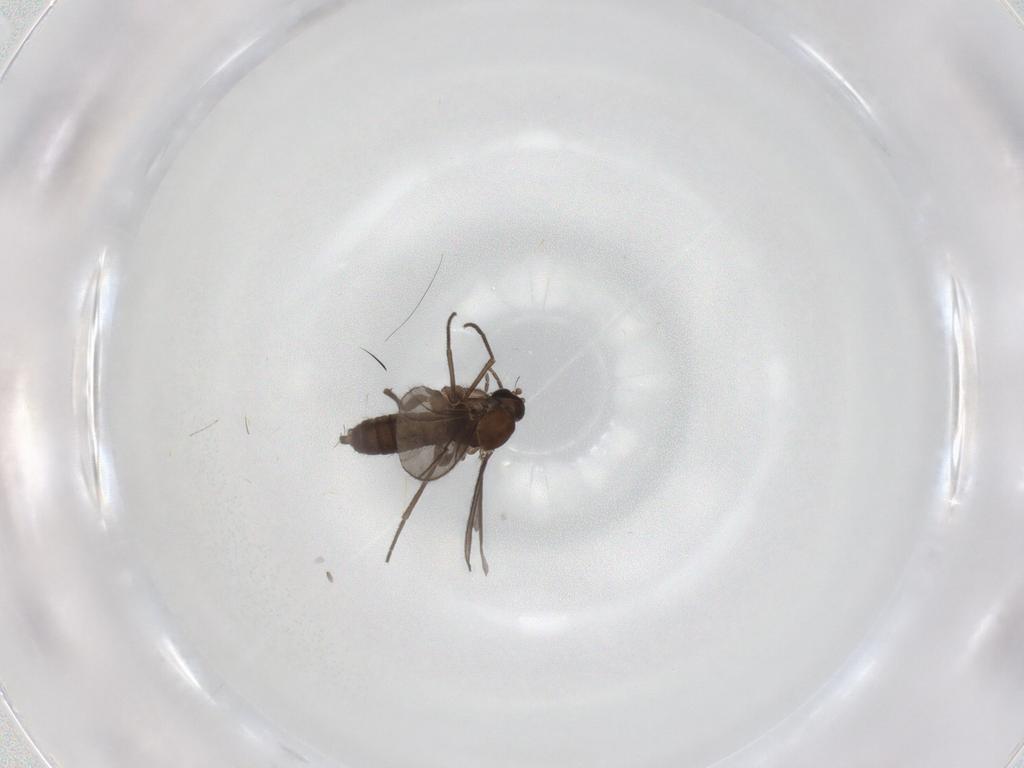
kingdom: Animalia
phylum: Arthropoda
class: Insecta
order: Diptera
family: Sciaridae
